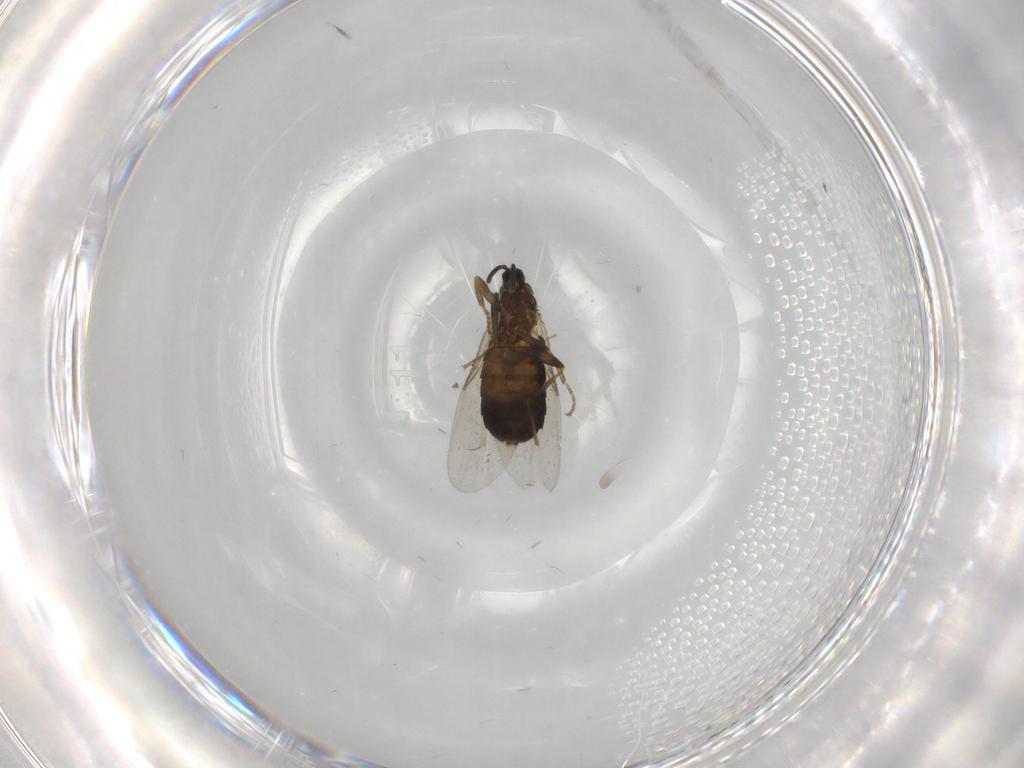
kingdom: Animalia
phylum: Arthropoda
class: Insecta
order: Diptera
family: Scatopsidae
